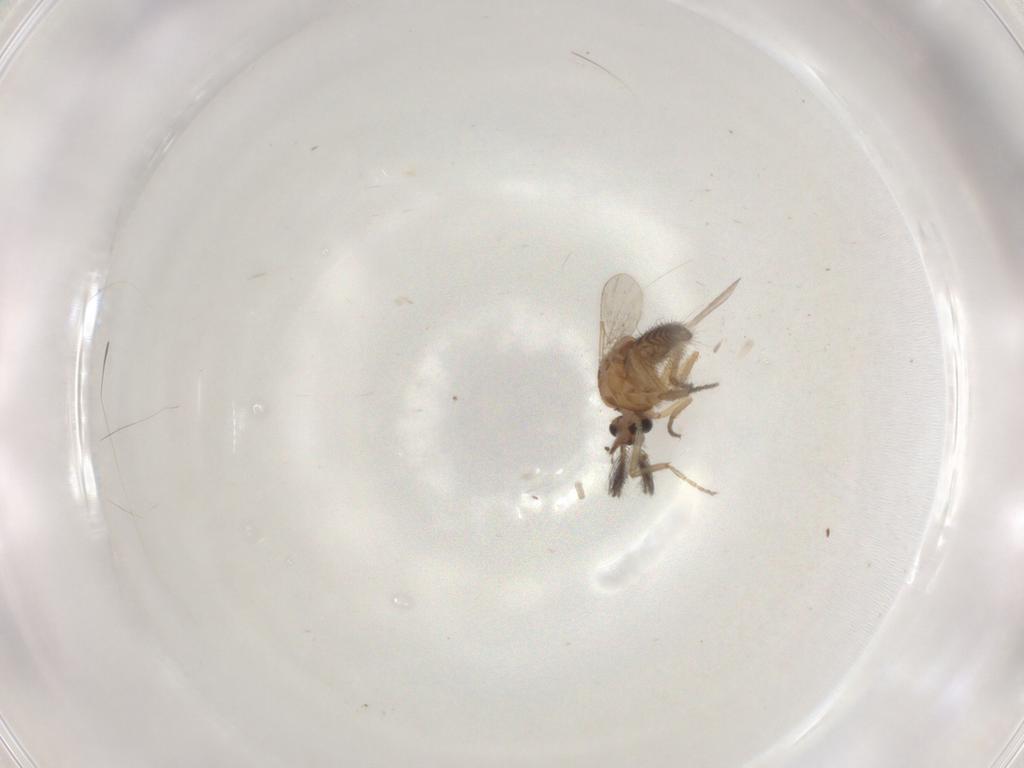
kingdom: Animalia
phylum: Arthropoda
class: Insecta
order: Diptera
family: Ceratopogonidae
